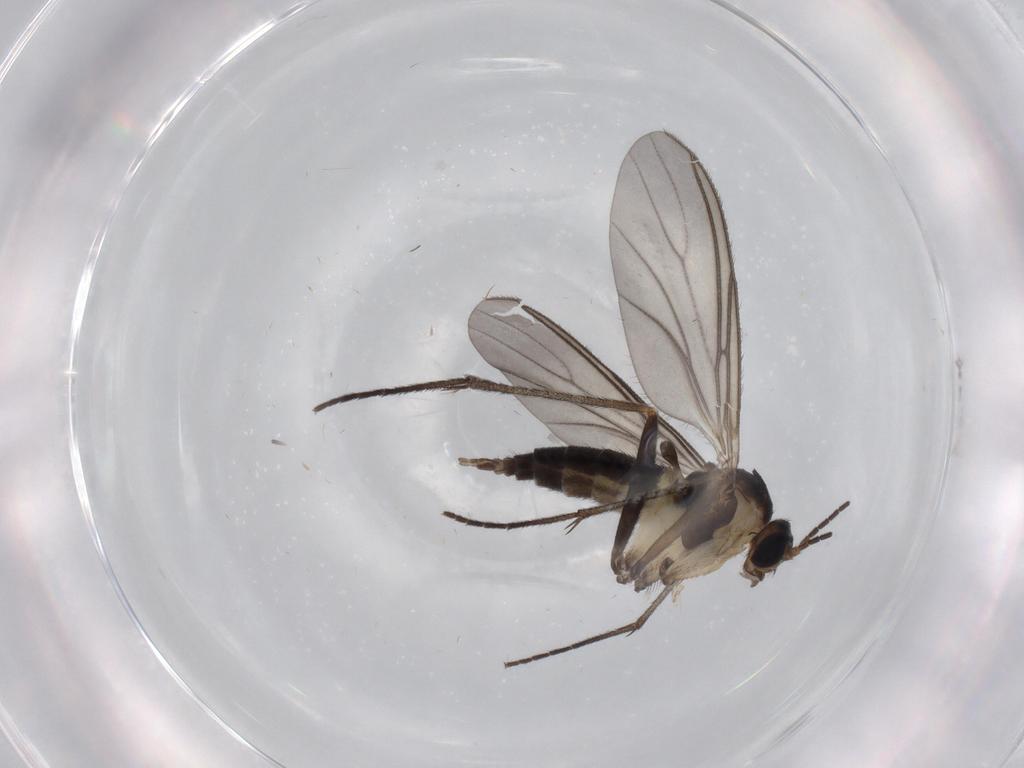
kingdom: Animalia
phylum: Arthropoda
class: Insecta
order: Diptera
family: Sciaridae
